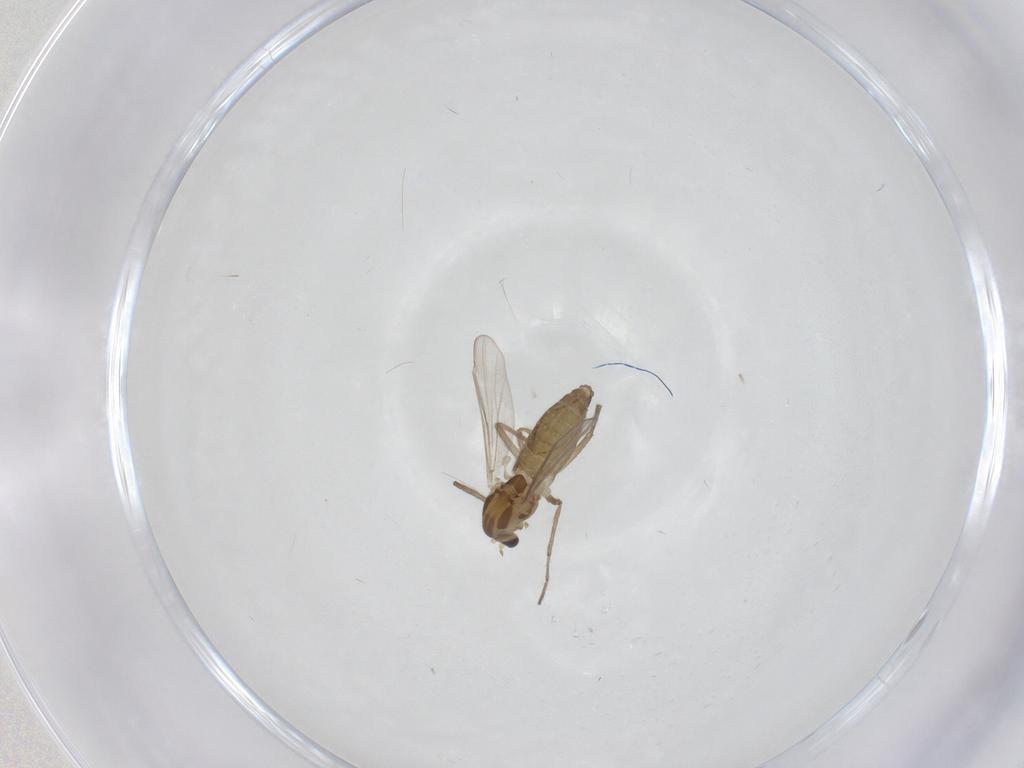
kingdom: Animalia
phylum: Arthropoda
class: Insecta
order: Diptera
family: Chironomidae
